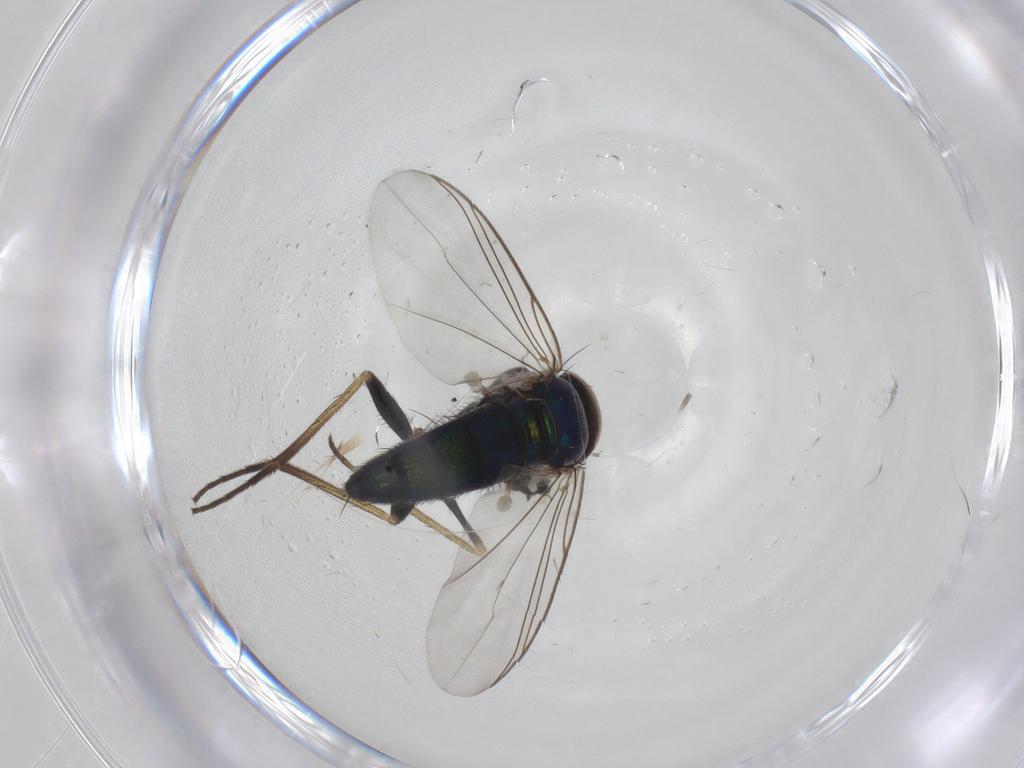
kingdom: Animalia
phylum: Arthropoda
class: Insecta
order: Diptera
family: Dolichopodidae
